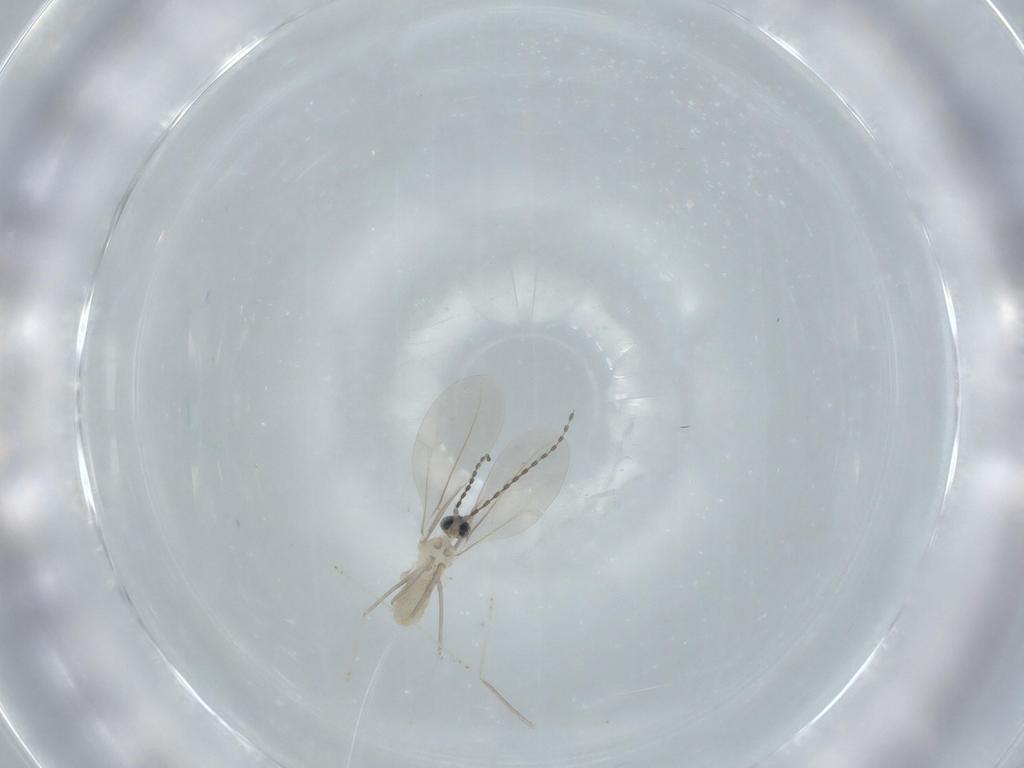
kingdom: Animalia
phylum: Arthropoda
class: Insecta
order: Diptera
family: Cecidomyiidae
